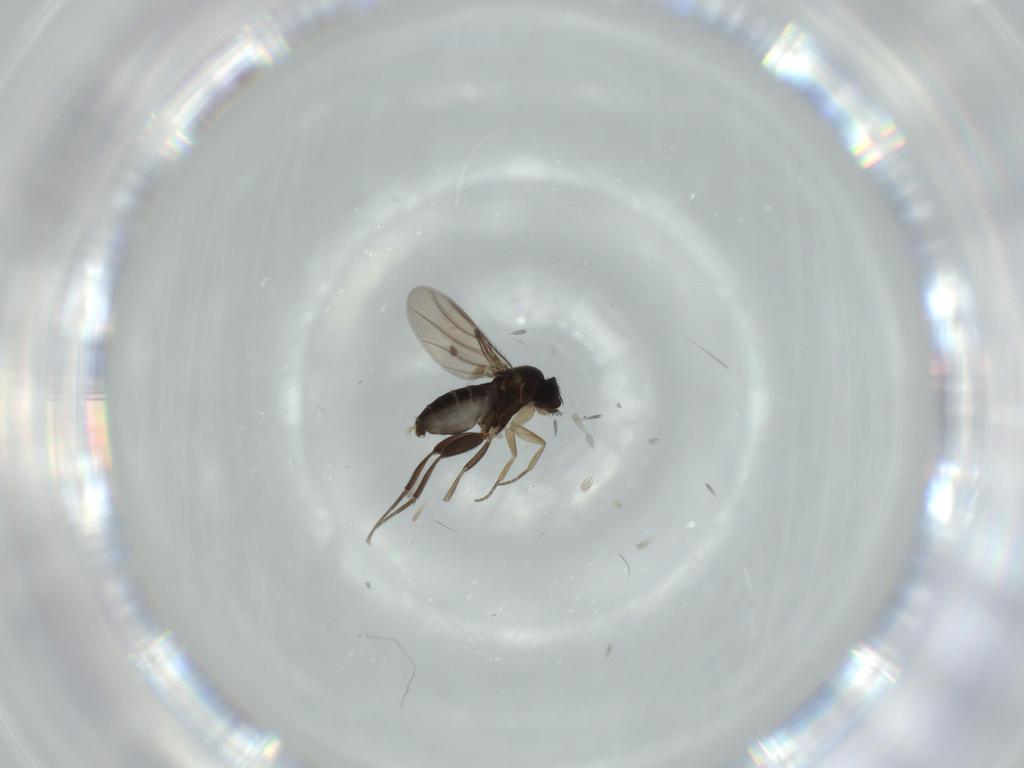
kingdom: Animalia
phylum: Arthropoda
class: Insecta
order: Diptera
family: Phoridae
